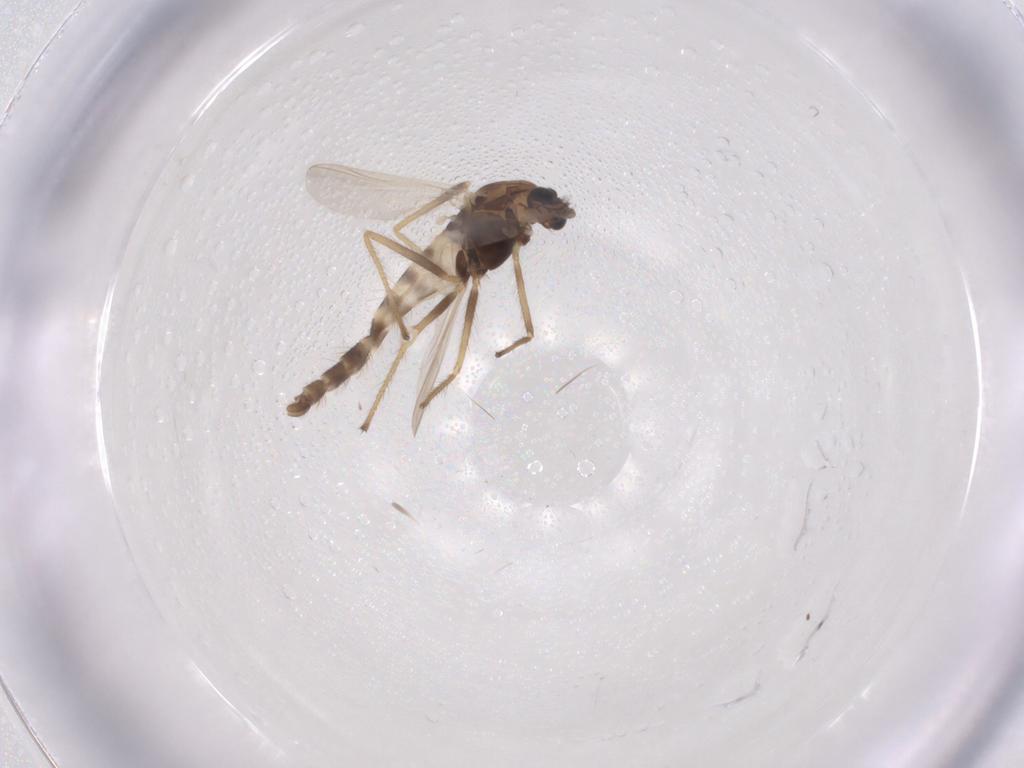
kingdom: Animalia
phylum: Arthropoda
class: Insecta
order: Diptera
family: Chironomidae
